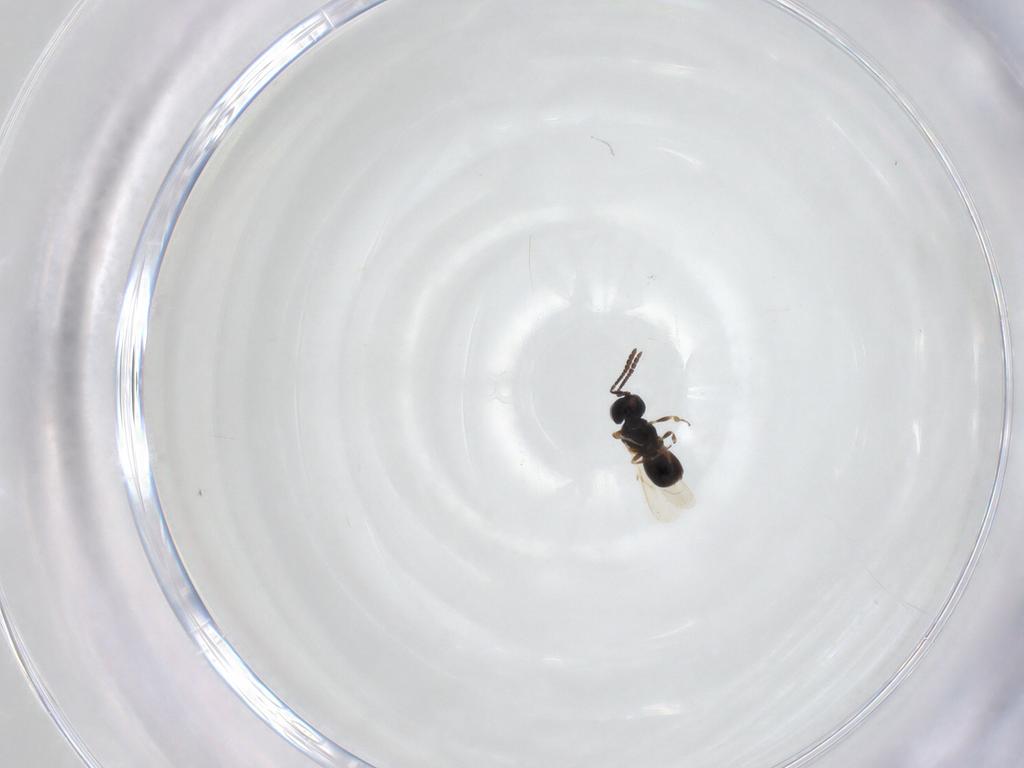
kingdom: Animalia
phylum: Arthropoda
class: Insecta
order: Hymenoptera
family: Scelionidae
